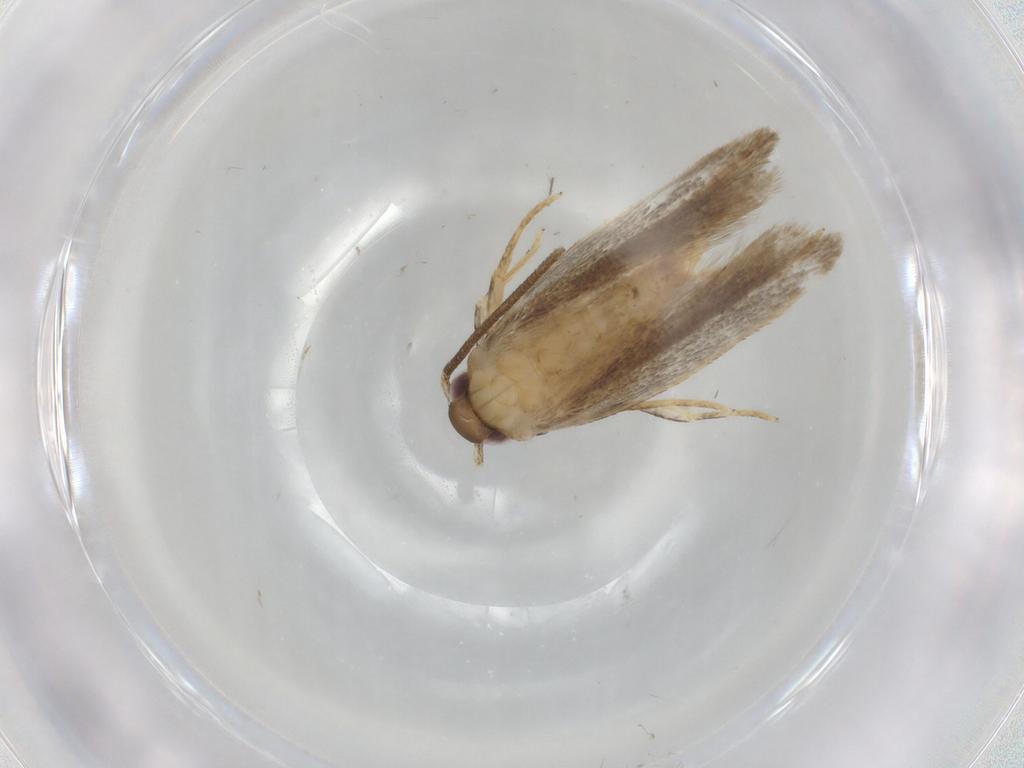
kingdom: Animalia
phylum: Arthropoda
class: Insecta
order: Lepidoptera
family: Autostichidae
